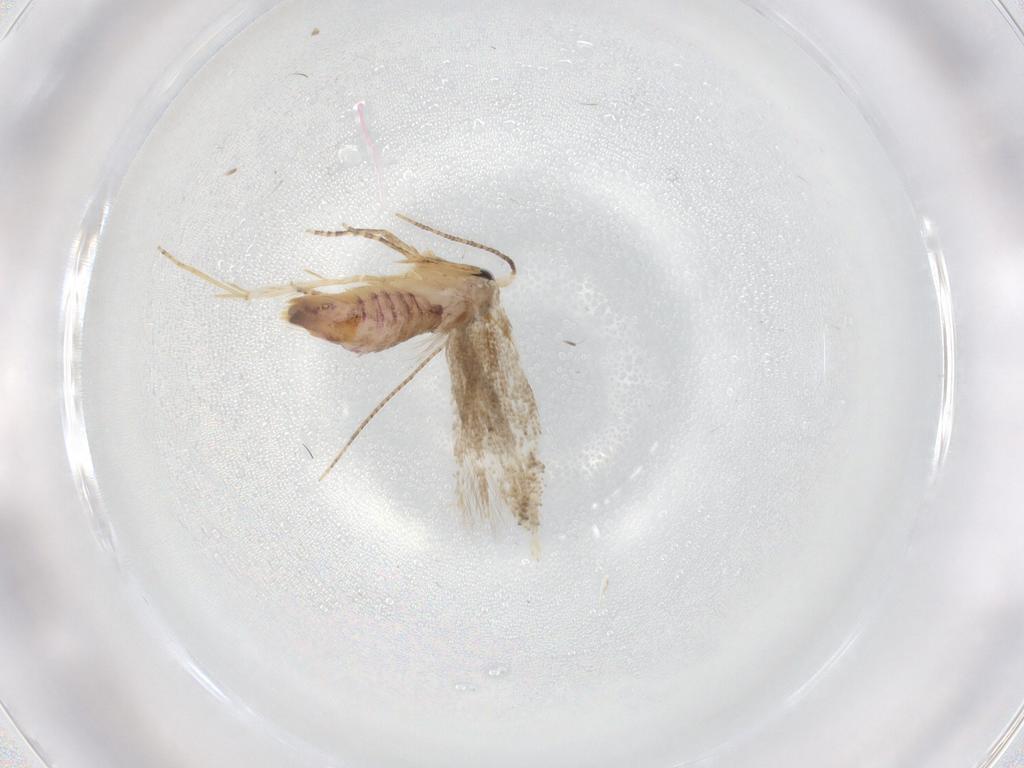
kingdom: Animalia
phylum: Arthropoda
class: Insecta
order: Lepidoptera
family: Bucculatricidae
